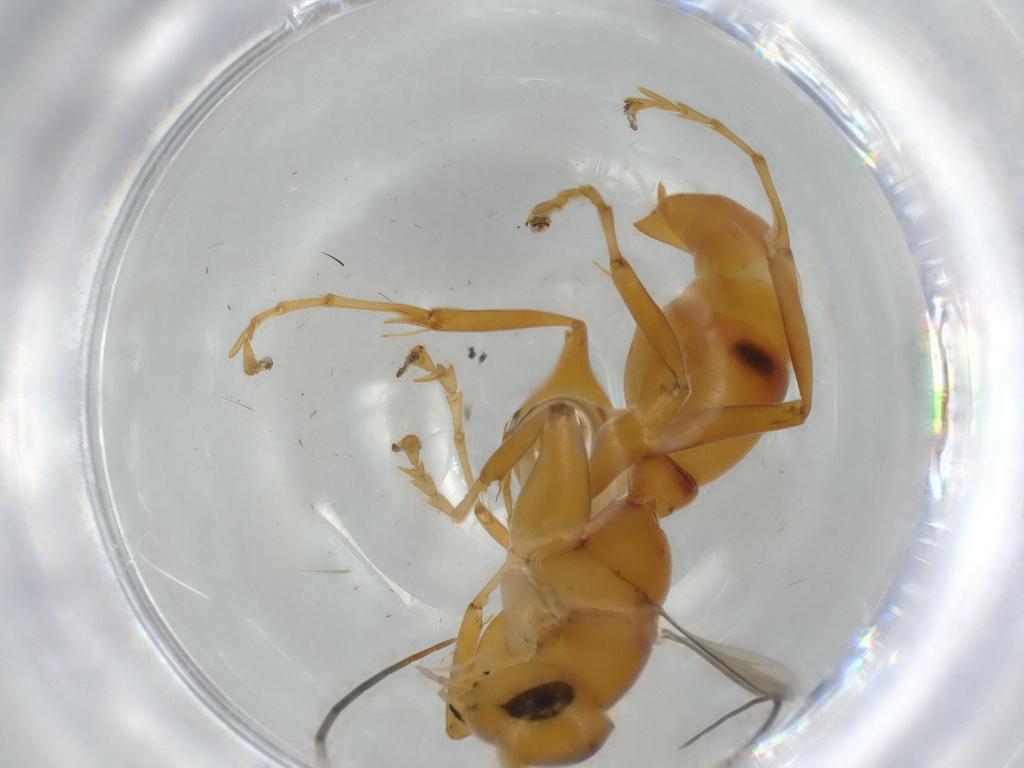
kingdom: Animalia
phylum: Arthropoda
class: Insecta
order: Hymenoptera
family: Rhopalosomatidae
